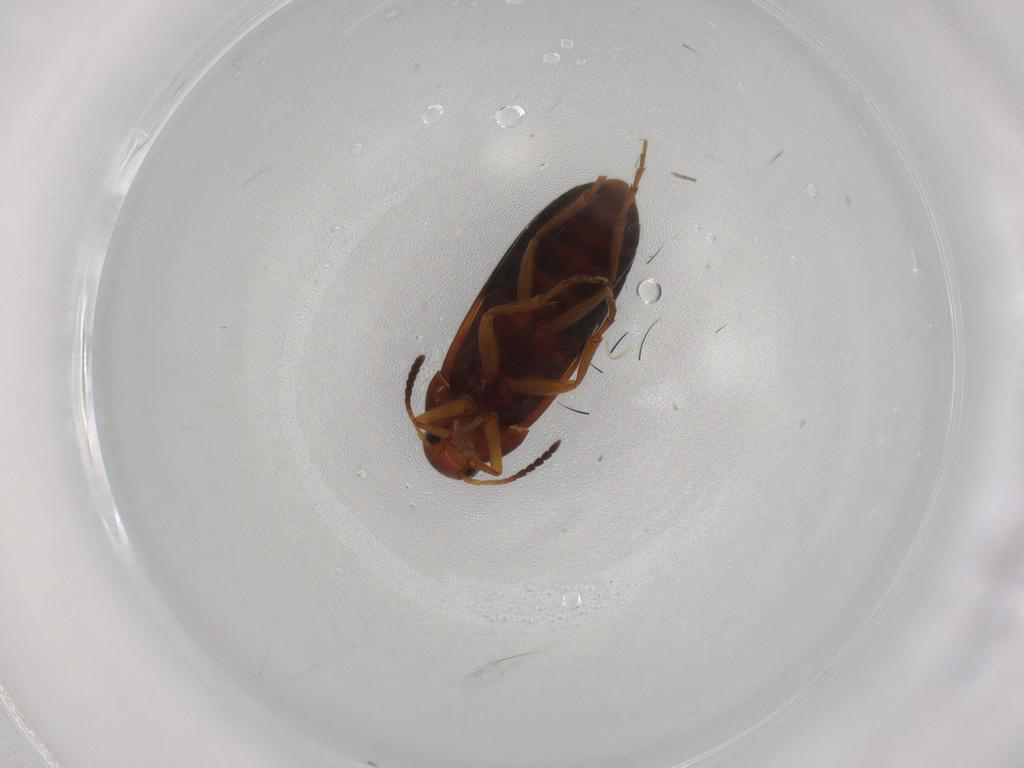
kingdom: Animalia
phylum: Arthropoda
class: Insecta
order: Coleoptera
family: Scraptiidae
